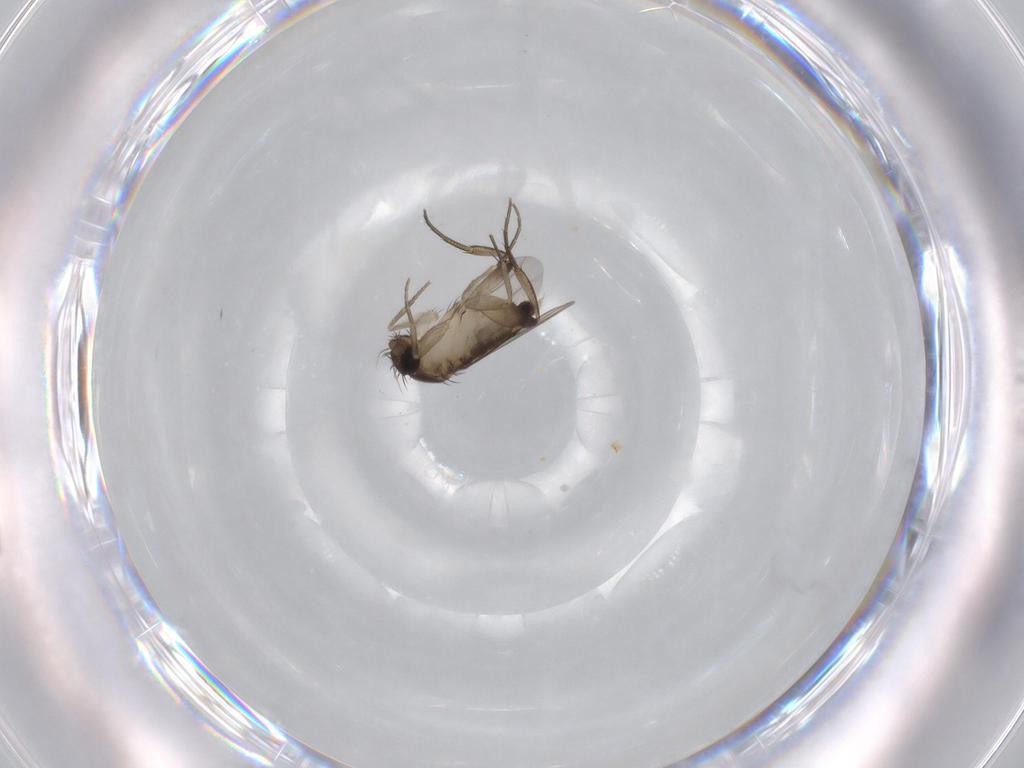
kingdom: Animalia
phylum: Arthropoda
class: Insecta
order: Diptera
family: Phoridae
